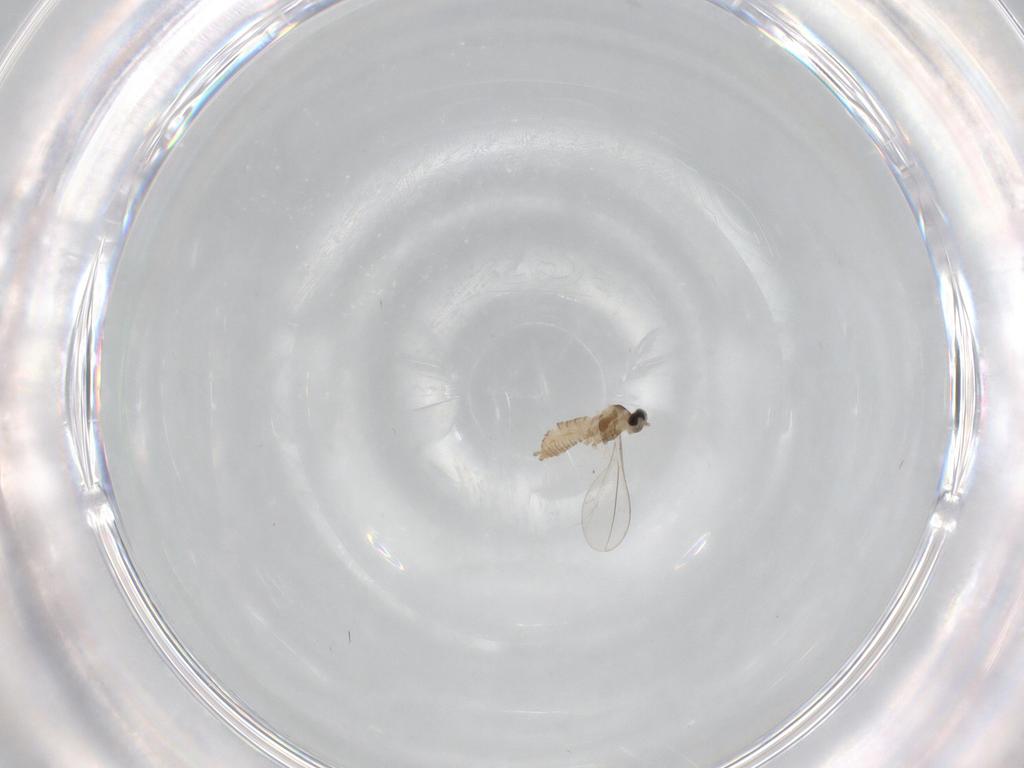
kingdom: Animalia
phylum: Arthropoda
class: Insecta
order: Diptera
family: Cecidomyiidae
